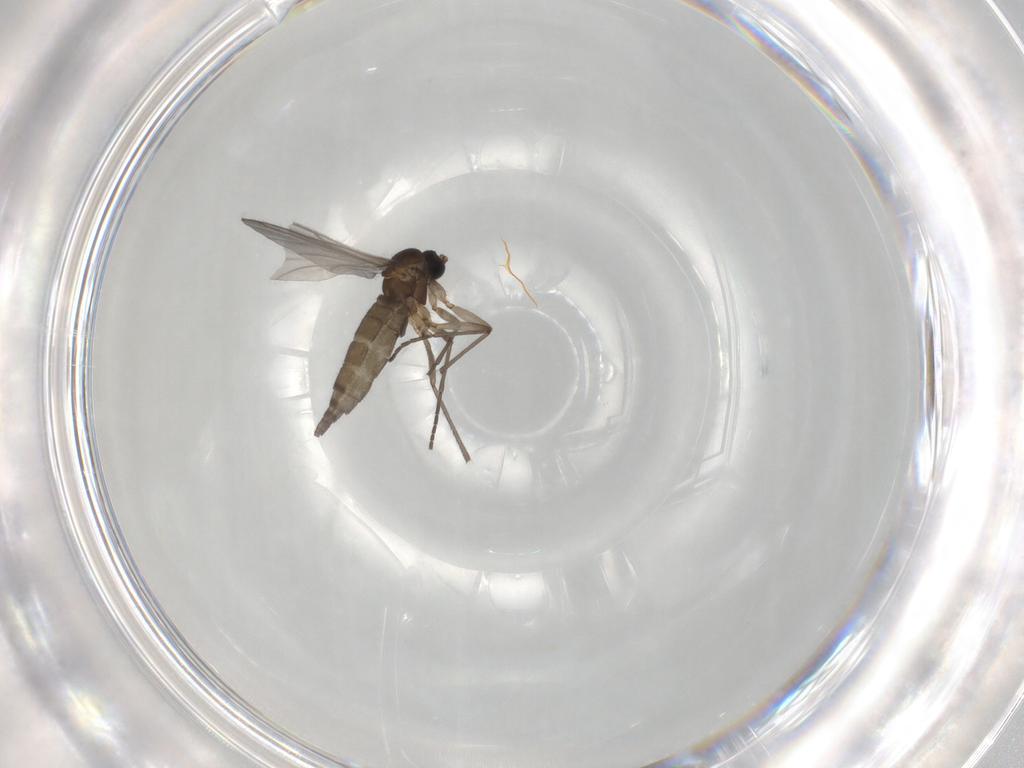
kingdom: Animalia
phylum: Arthropoda
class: Insecta
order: Diptera
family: Sciaridae
